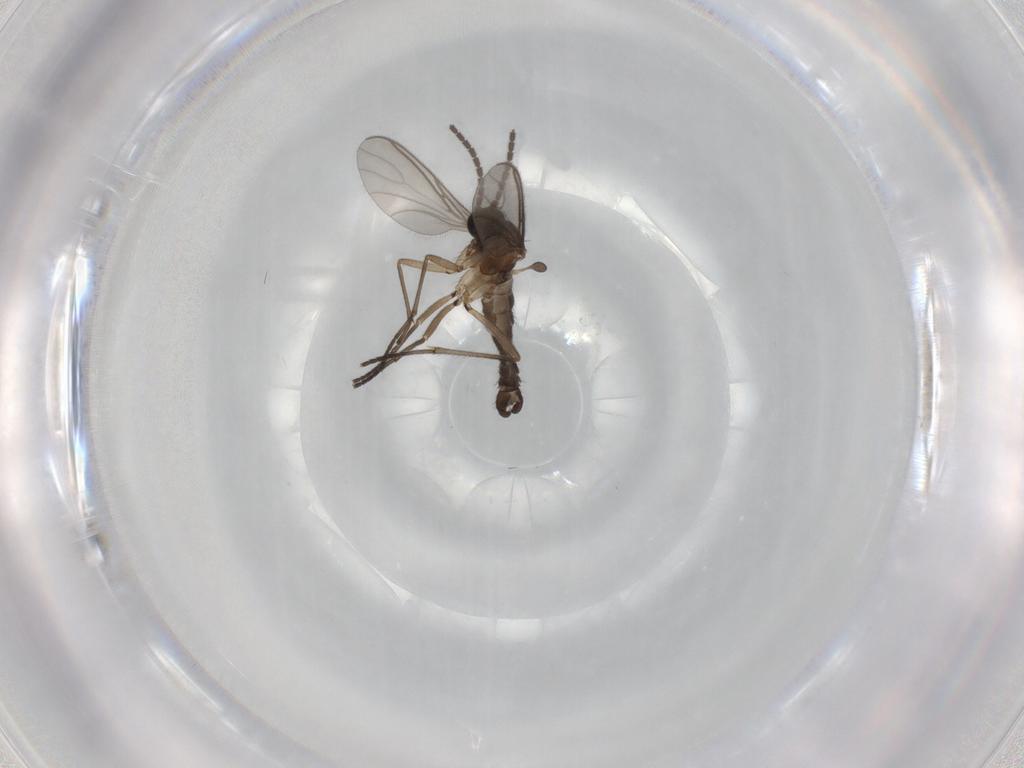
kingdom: Animalia
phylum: Arthropoda
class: Insecta
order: Diptera
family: Sciaridae
